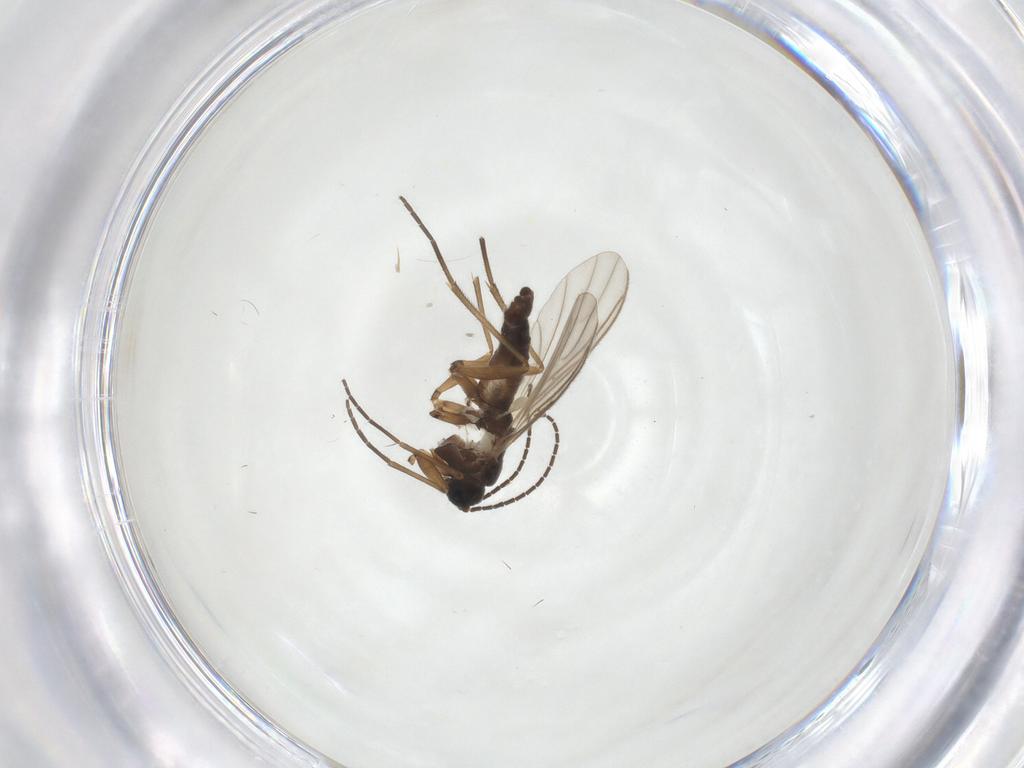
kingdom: Animalia
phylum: Arthropoda
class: Insecta
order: Diptera
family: Sciaridae
